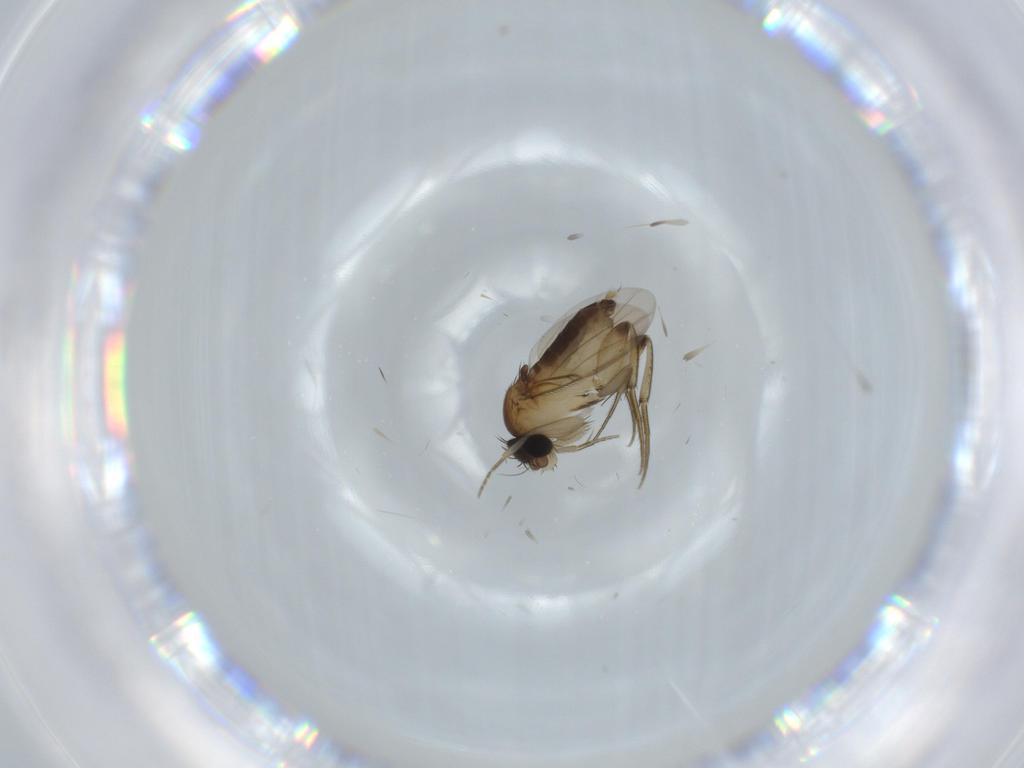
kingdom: Animalia
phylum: Arthropoda
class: Insecta
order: Diptera
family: Phoridae
